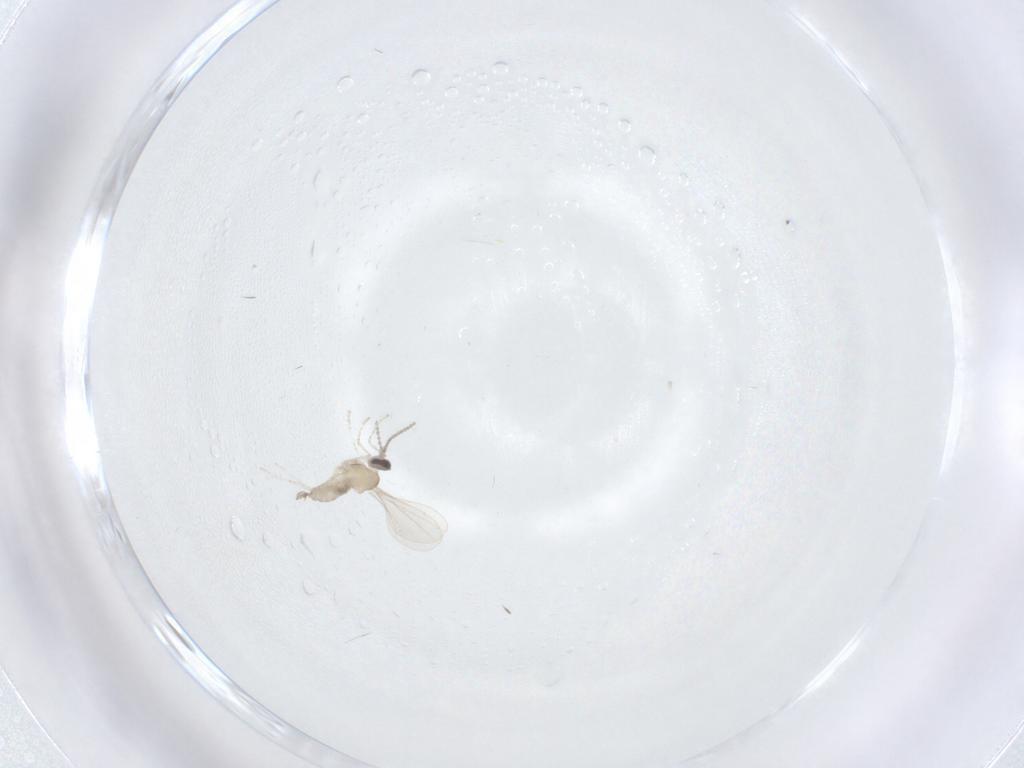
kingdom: Animalia
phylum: Arthropoda
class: Insecta
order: Diptera
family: Cecidomyiidae
